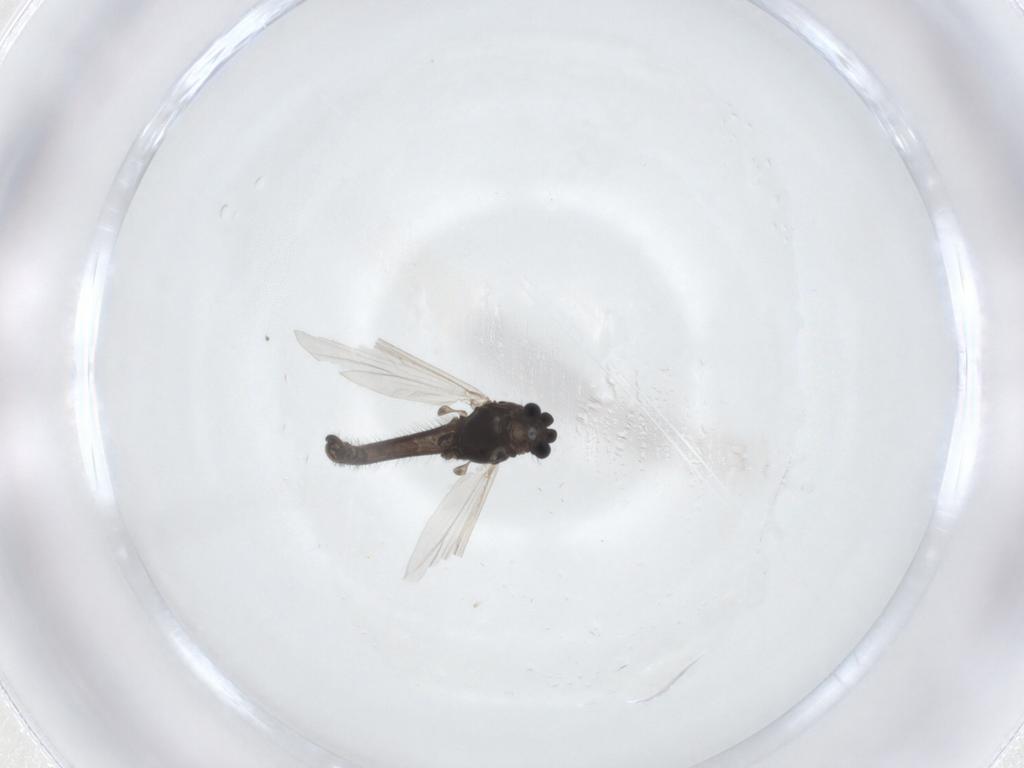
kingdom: Animalia
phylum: Arthropoda
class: Insecta
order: Diptera
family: Chironomidae
